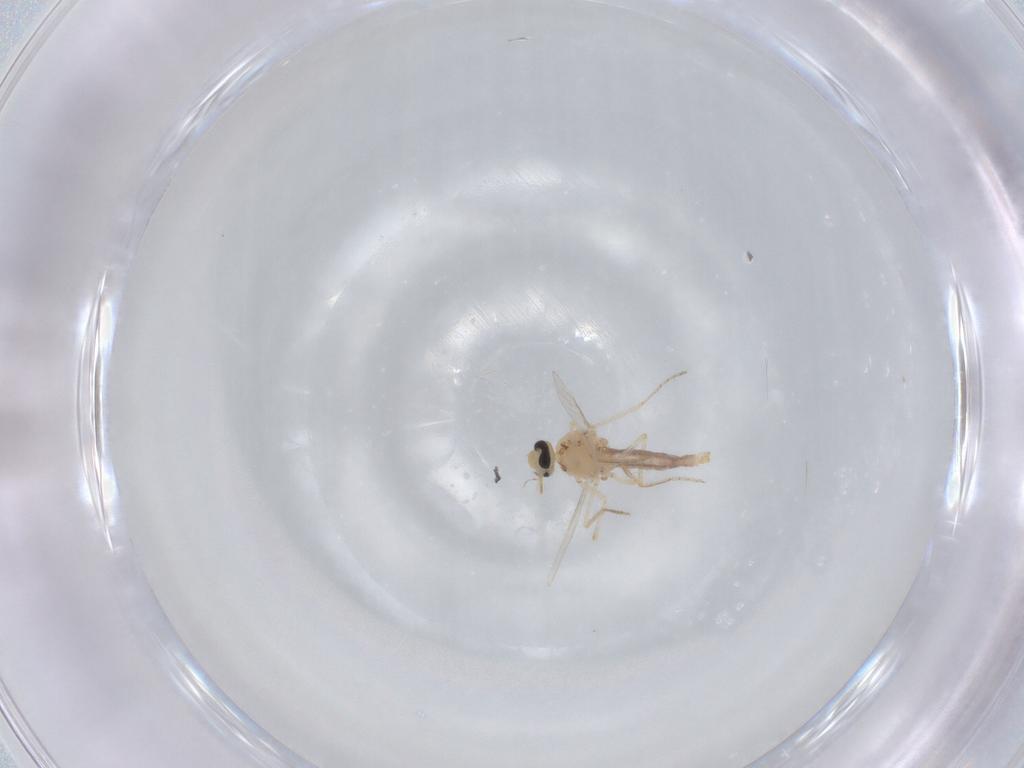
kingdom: Animalia
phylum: Arthropoda
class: Insecta
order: Diptera
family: Ceratopogonidae
